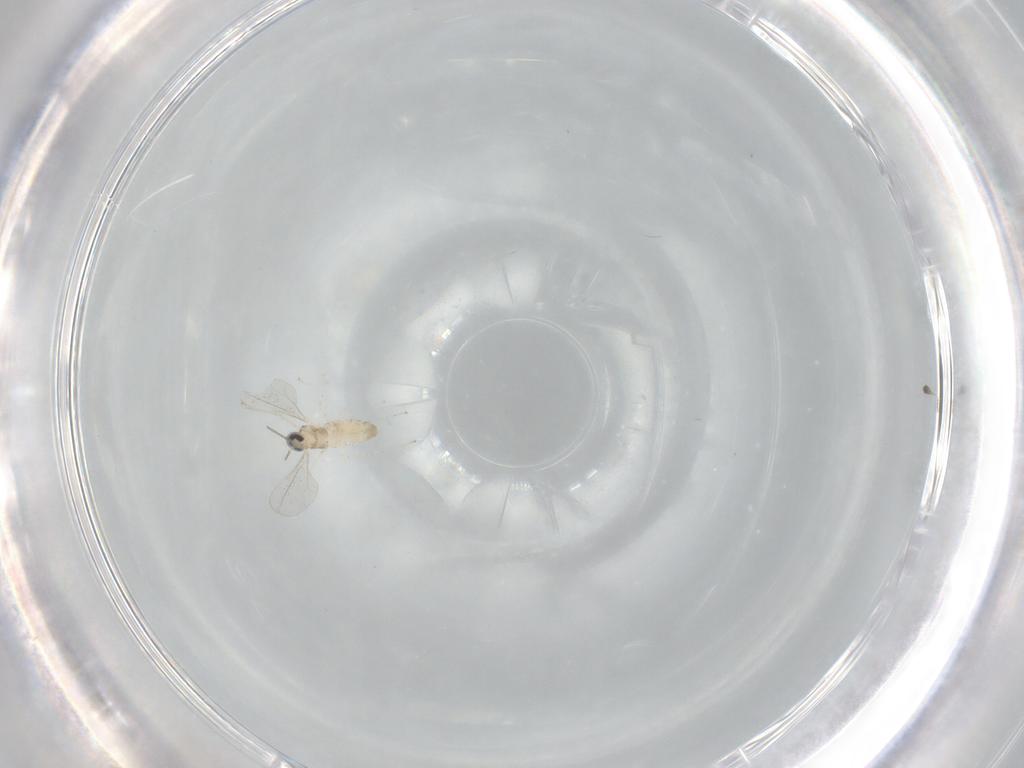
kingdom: Animalia
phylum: Arthropoda
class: Insecta
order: Diptera
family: Cecidomyiidae
